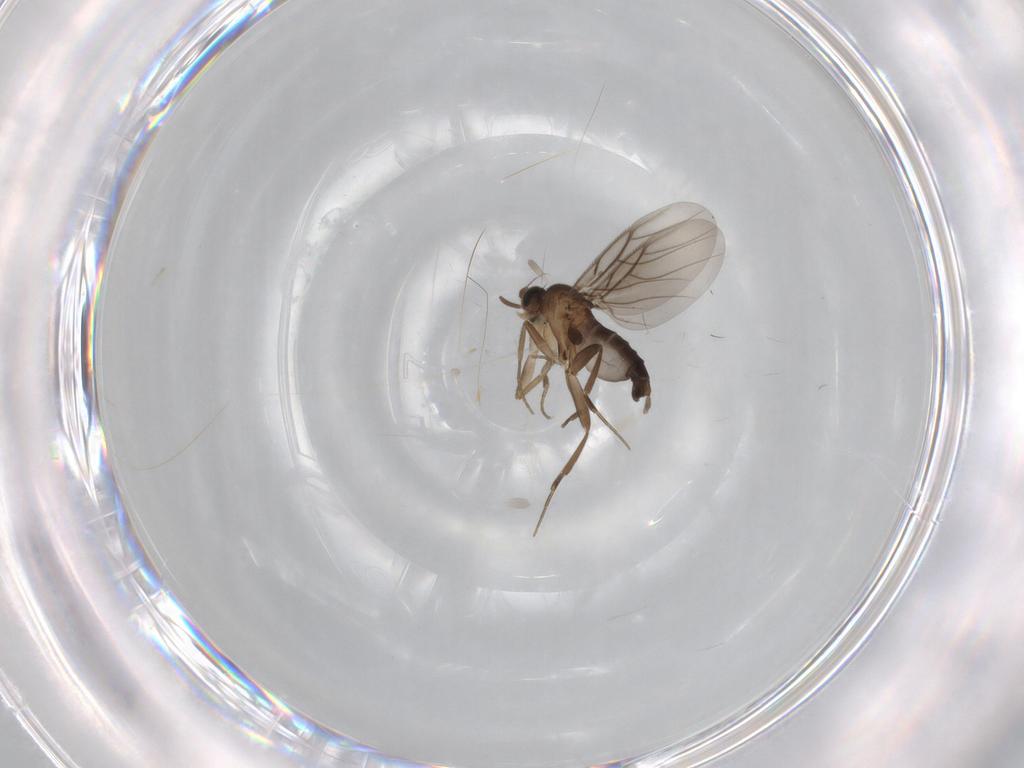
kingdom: Animalia
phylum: Arthropoda
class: Insecta
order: Diptera
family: Phoridae
